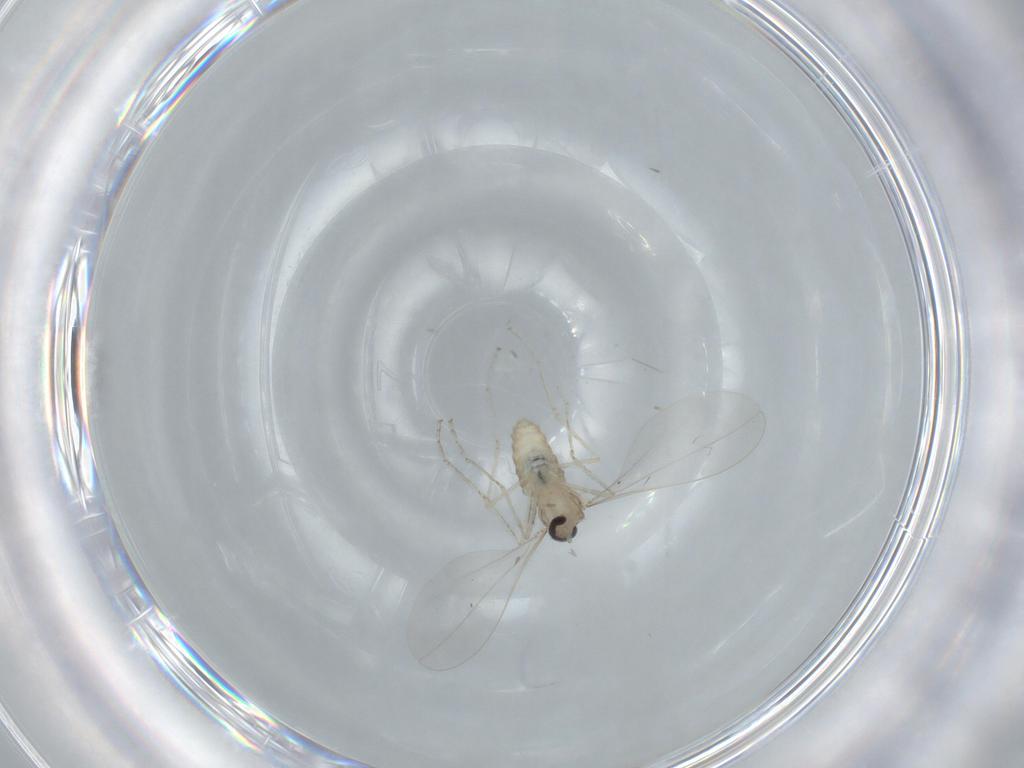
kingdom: Animalia
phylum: Arthropoda
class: Insecta
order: Diptera
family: Cecidomyiidae
